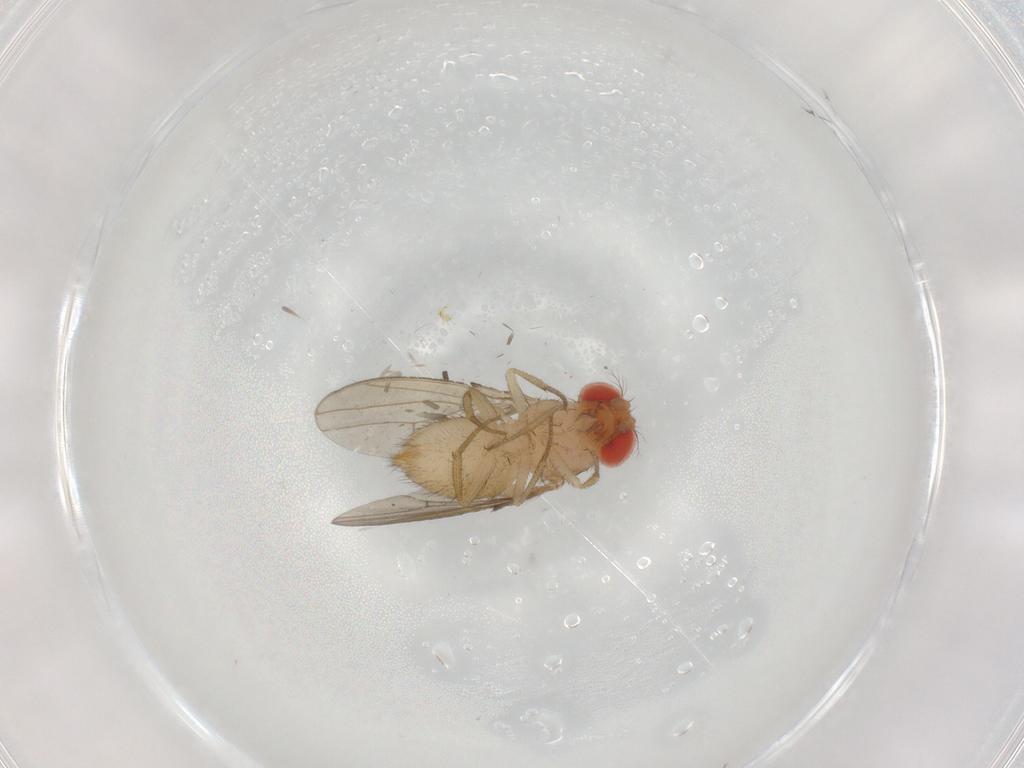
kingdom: Animalia
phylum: Arthropoda
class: Insecta
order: Diptera
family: Drosophilidae
